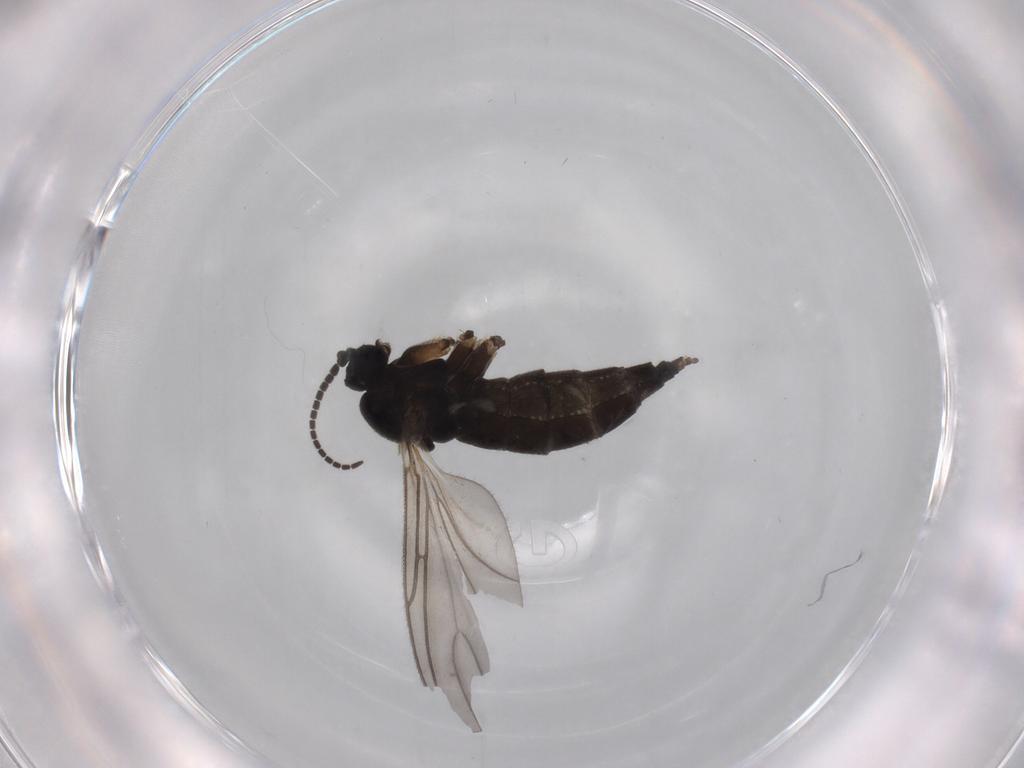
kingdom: Animalia
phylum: Arthropoda
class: Insecta
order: Diptera
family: Sciaridae
